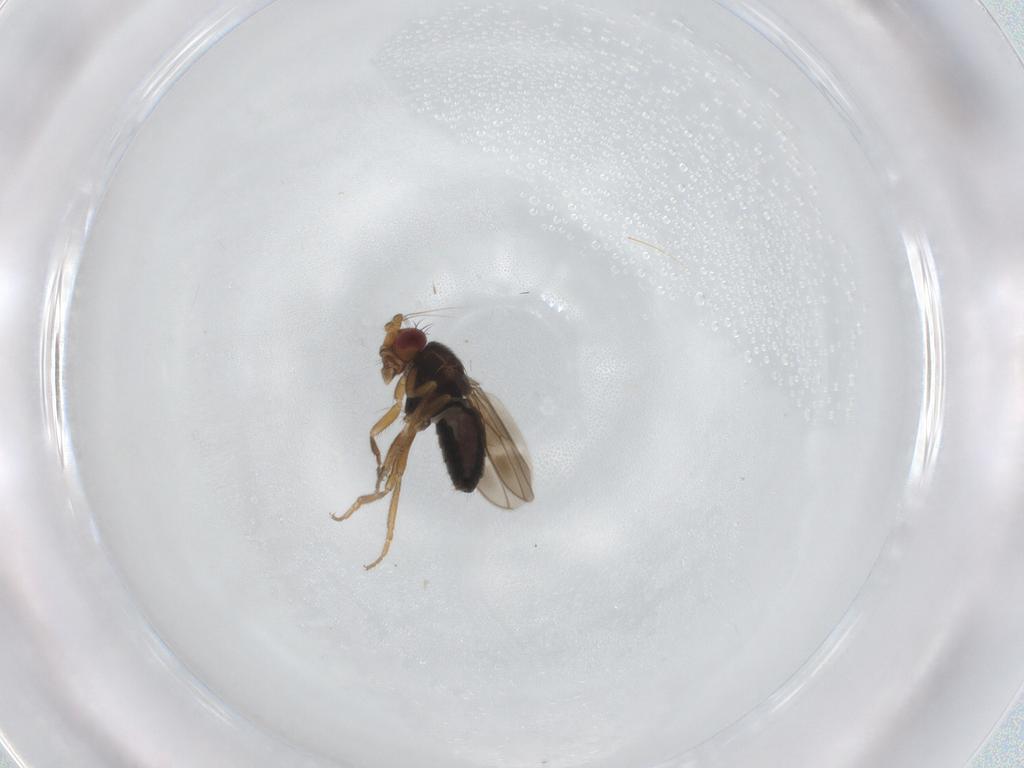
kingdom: Animalia
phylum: Arthropoda
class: Insecta
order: Diptera
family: Sphaeroceridae
